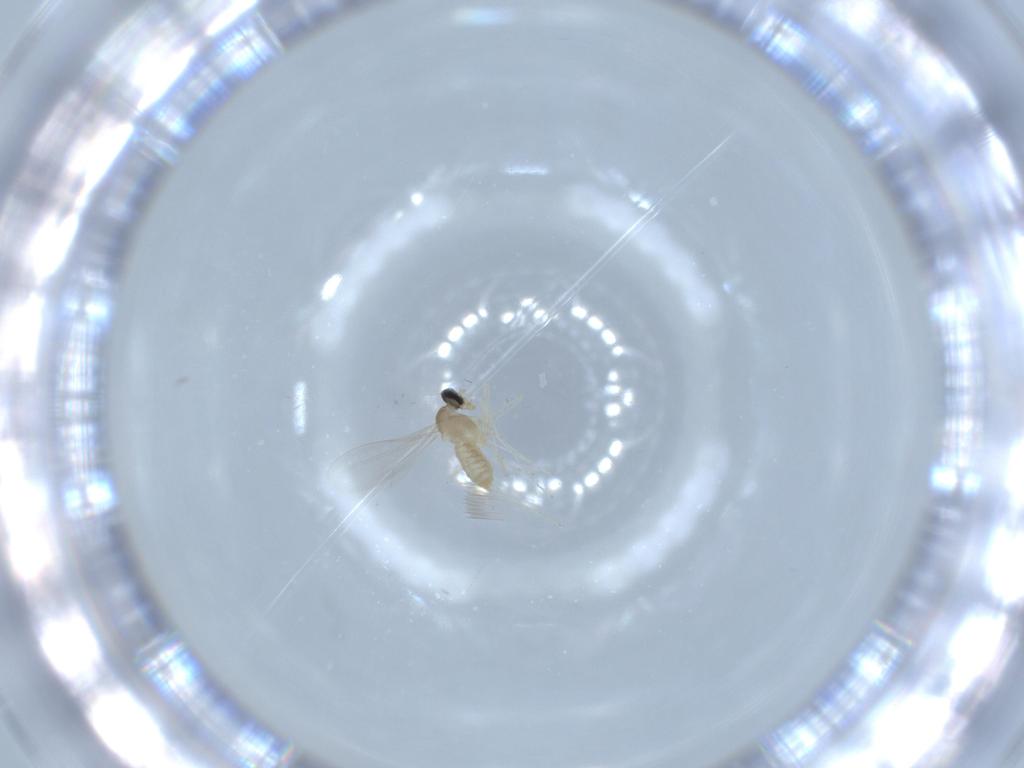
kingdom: Animalia
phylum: Arthropoda
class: Insecta
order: Diptera
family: Cecidomyiidae
